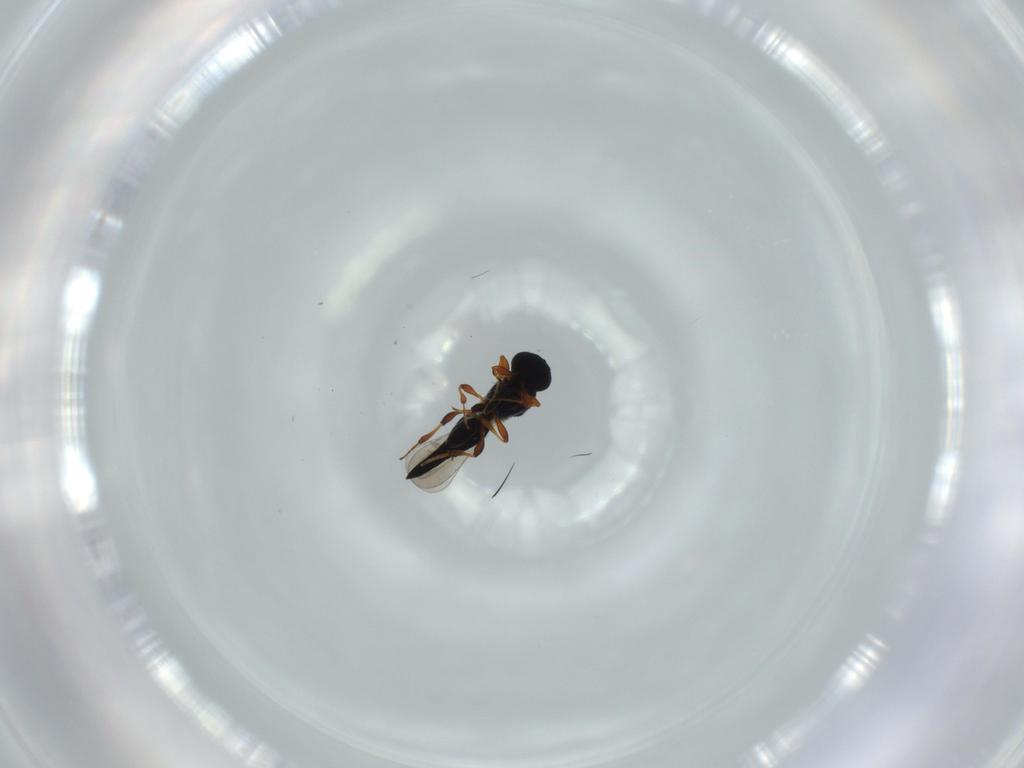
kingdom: Animalia
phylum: Arthropoda
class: Insecta
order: Hymenoptera
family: Platygastridae
